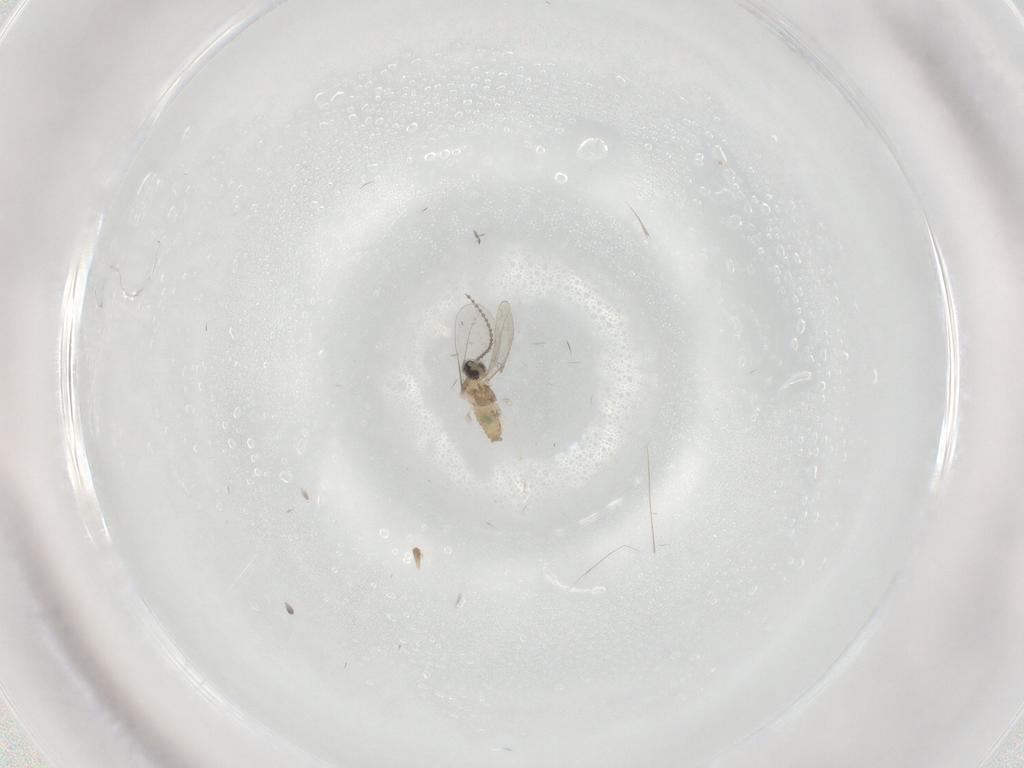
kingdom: Animalia
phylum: Arthropoda
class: Insecta
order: Diptera
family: Cecidomyiidae
